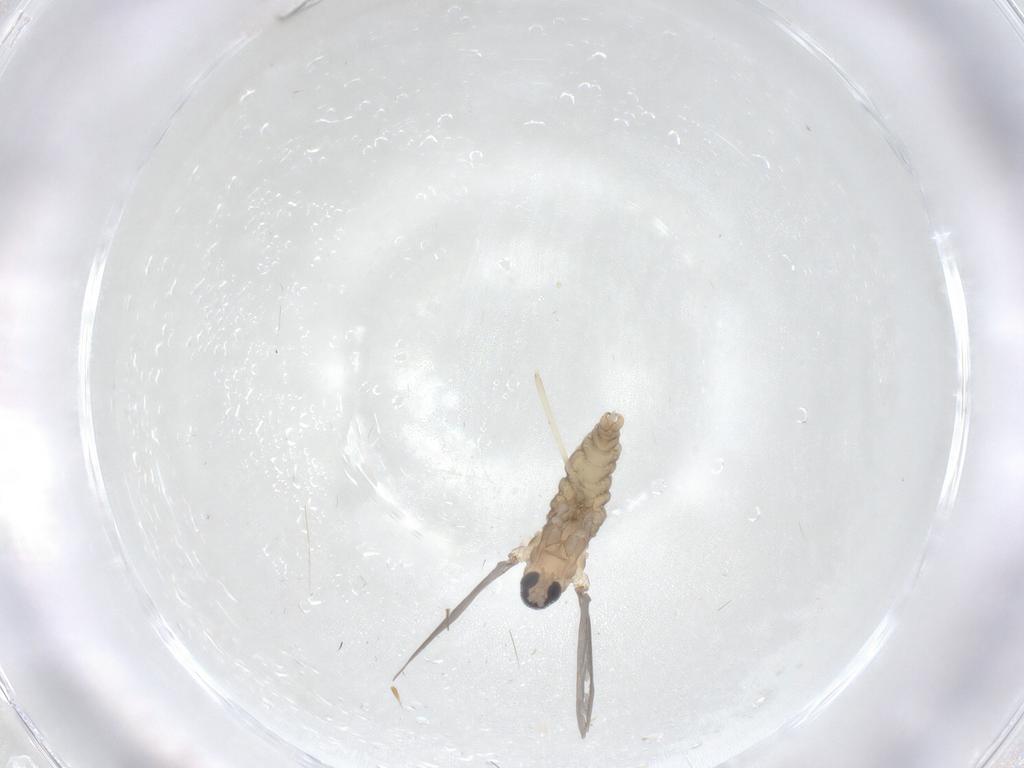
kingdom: Animalia
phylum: Arthropoda
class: Insecta
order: Diptera
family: Cecidomyiidae
